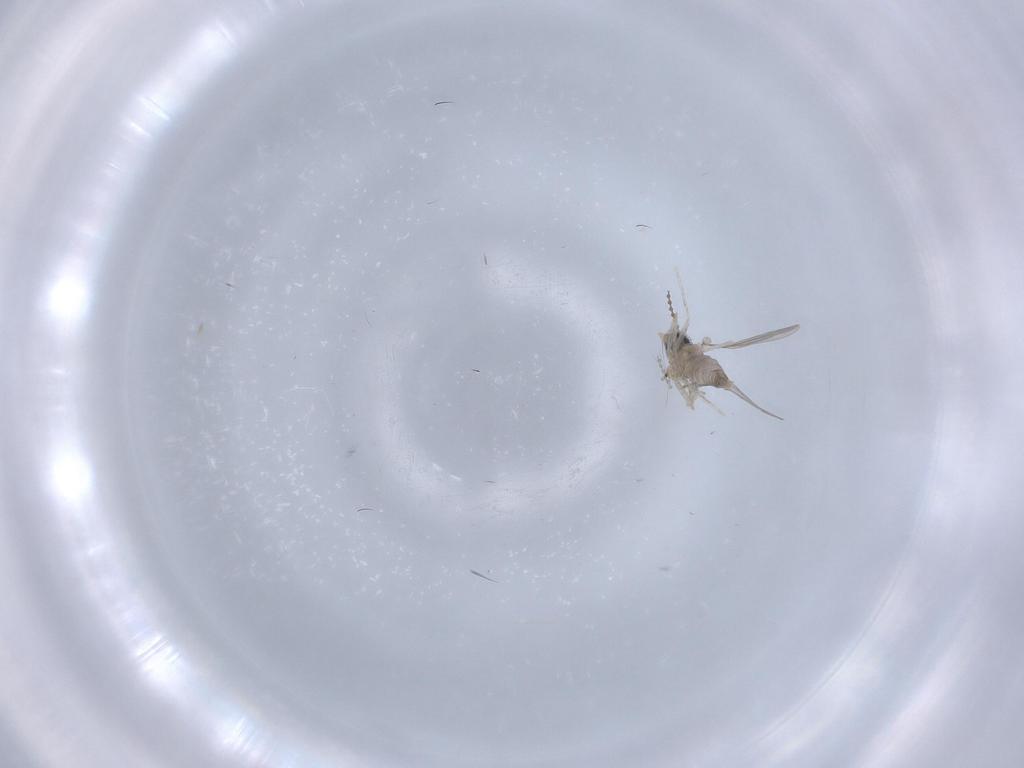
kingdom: Animalia
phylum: Arthropoda
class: Insecta
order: Diptera
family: Cecidomyiidae
